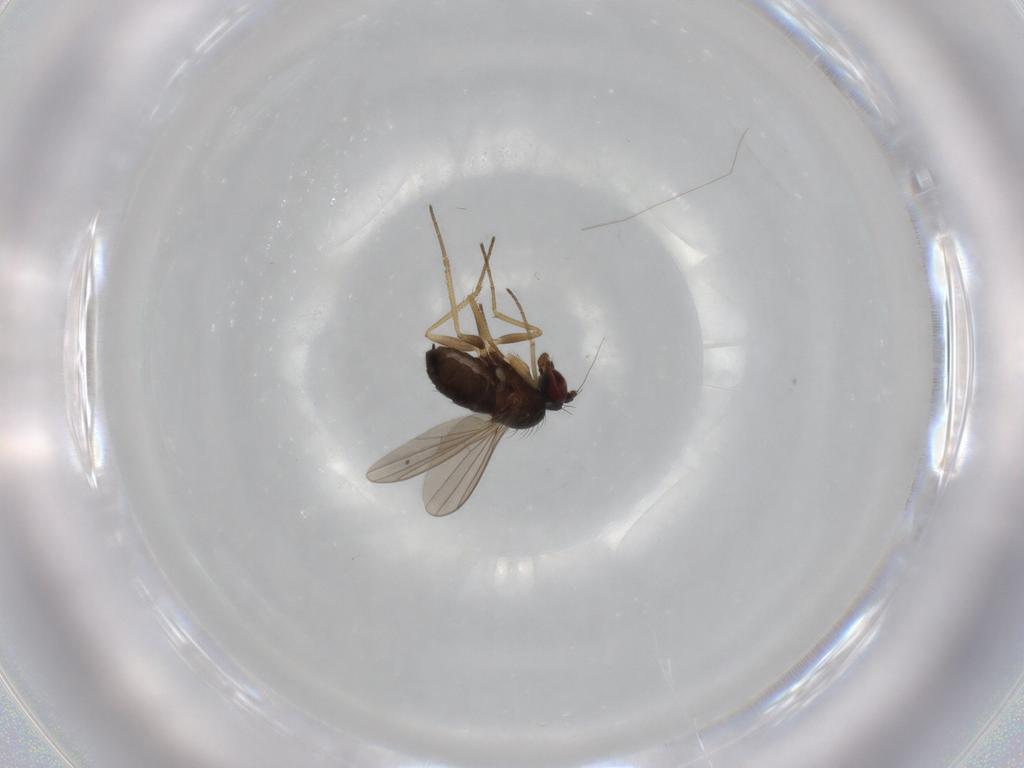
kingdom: Animalia
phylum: Arthropoda
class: Insecta
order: Diptera
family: Dolichopodidae
